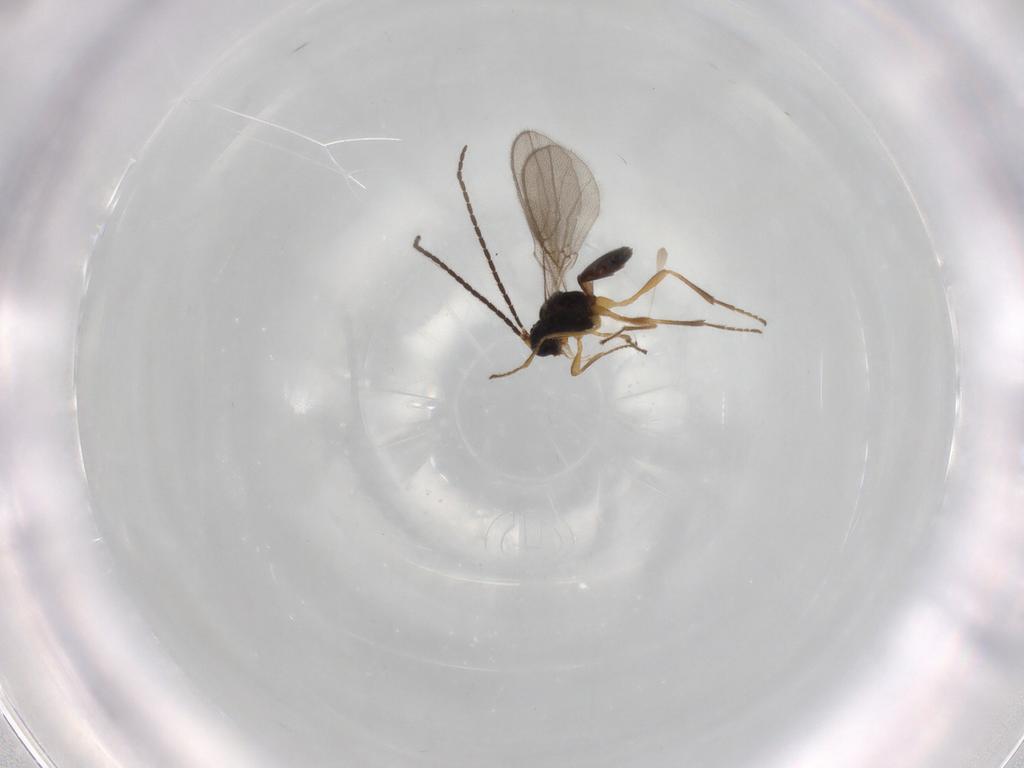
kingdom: Animalia
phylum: Arthropoda
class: Insecta
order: Hymenoptera
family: Braconidae
